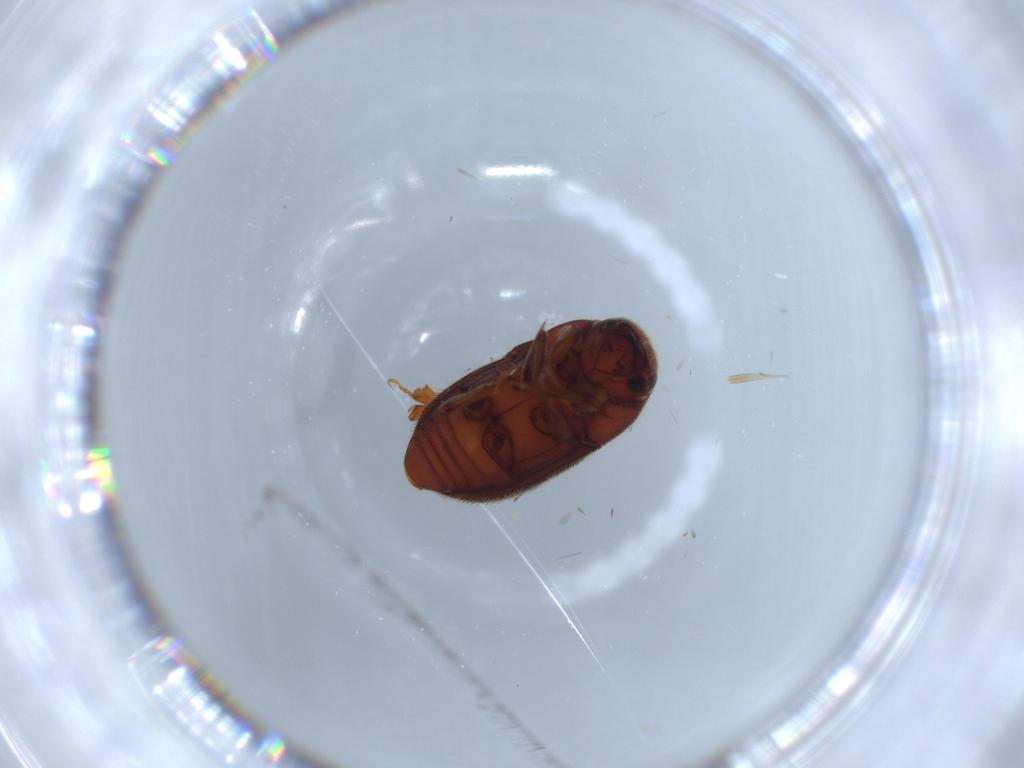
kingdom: Animalia
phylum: Arthropoda
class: Insecta
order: Coleoptera
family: Curculionidae
